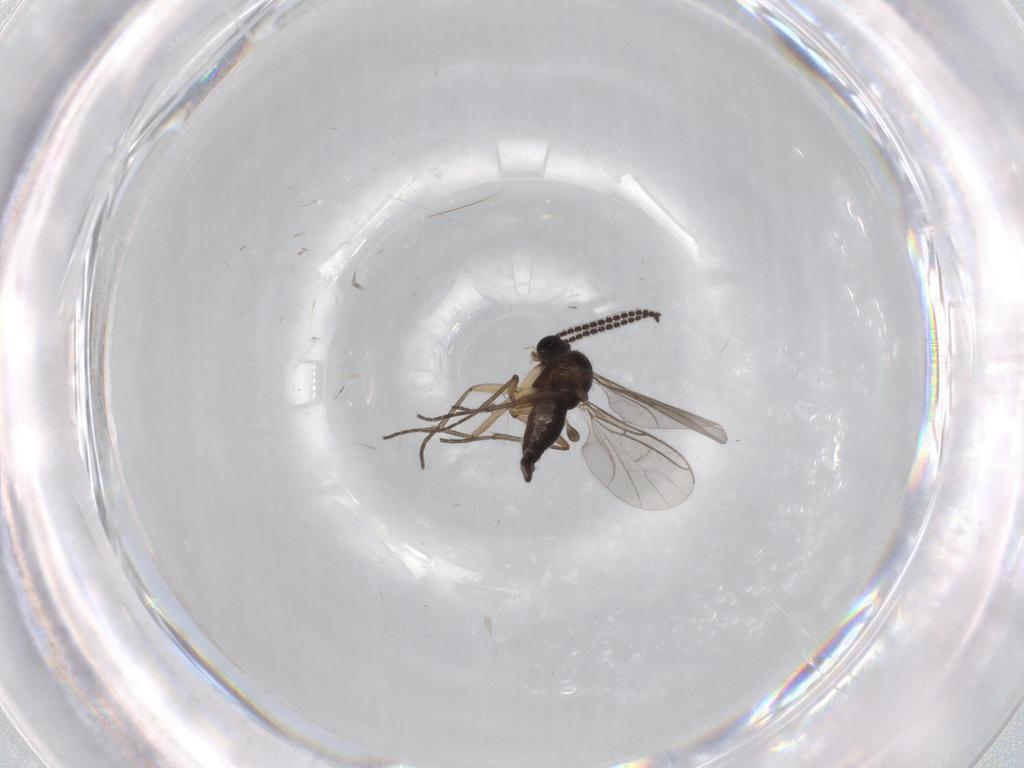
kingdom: Animalia
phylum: Arthropoda
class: Insecta
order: Diptera
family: Sciaridae
